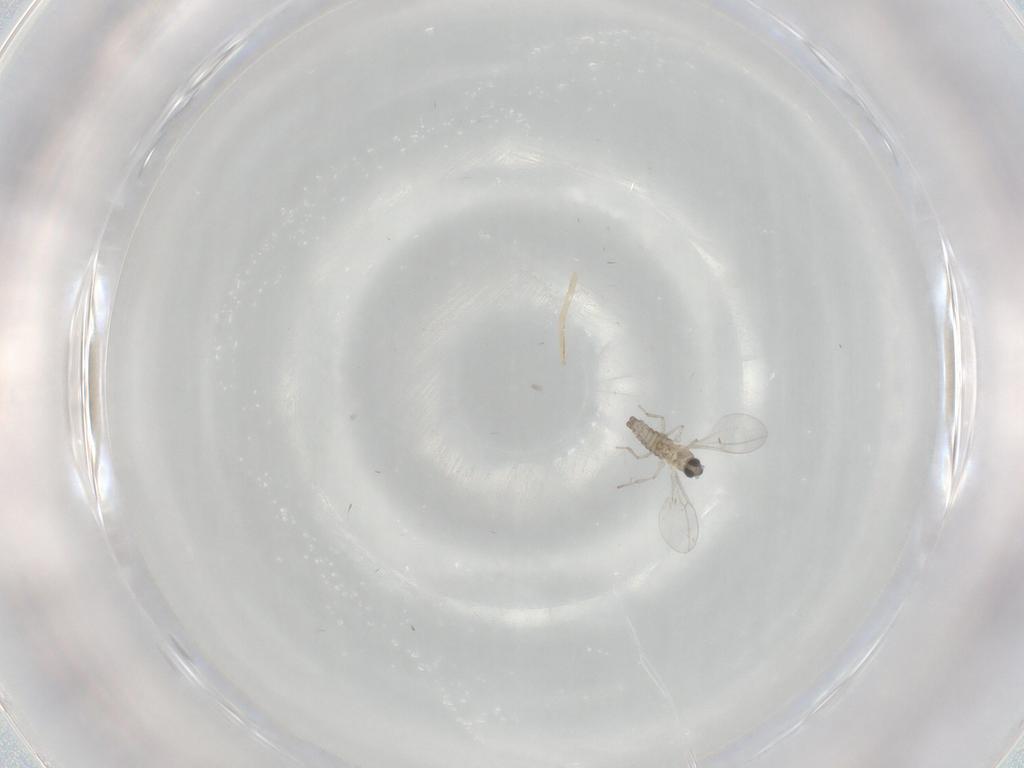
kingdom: Animalia
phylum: Arthropoda
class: Insecta
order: Diptera
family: Cecidomyiidae
